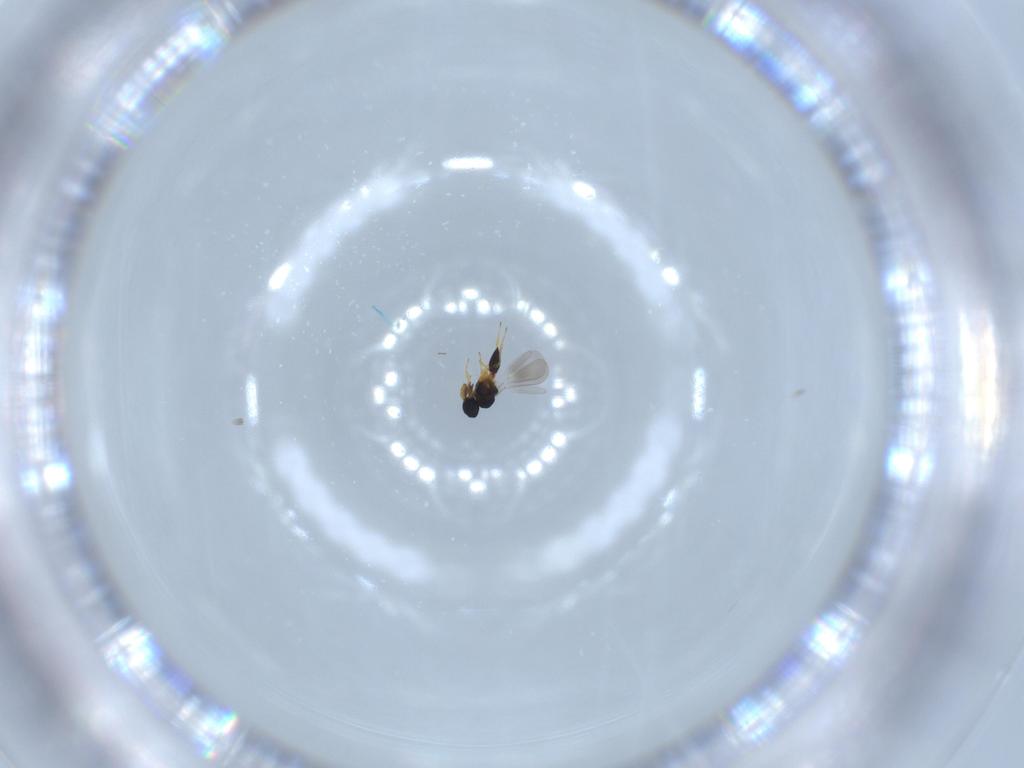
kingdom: Animalia
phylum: Arthropoda
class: Insecta
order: Hymenoptera
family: Platygastridae
